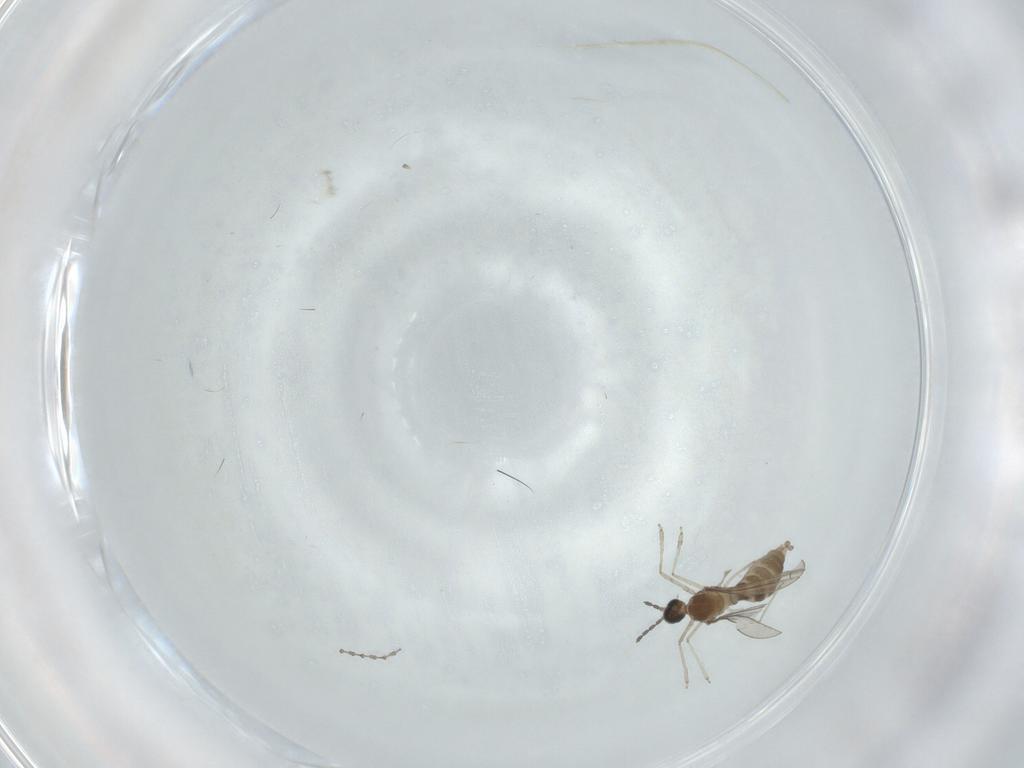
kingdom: Animalia
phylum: Arthropoda
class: Insecta
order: Diptera
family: Cecidomyiidae
